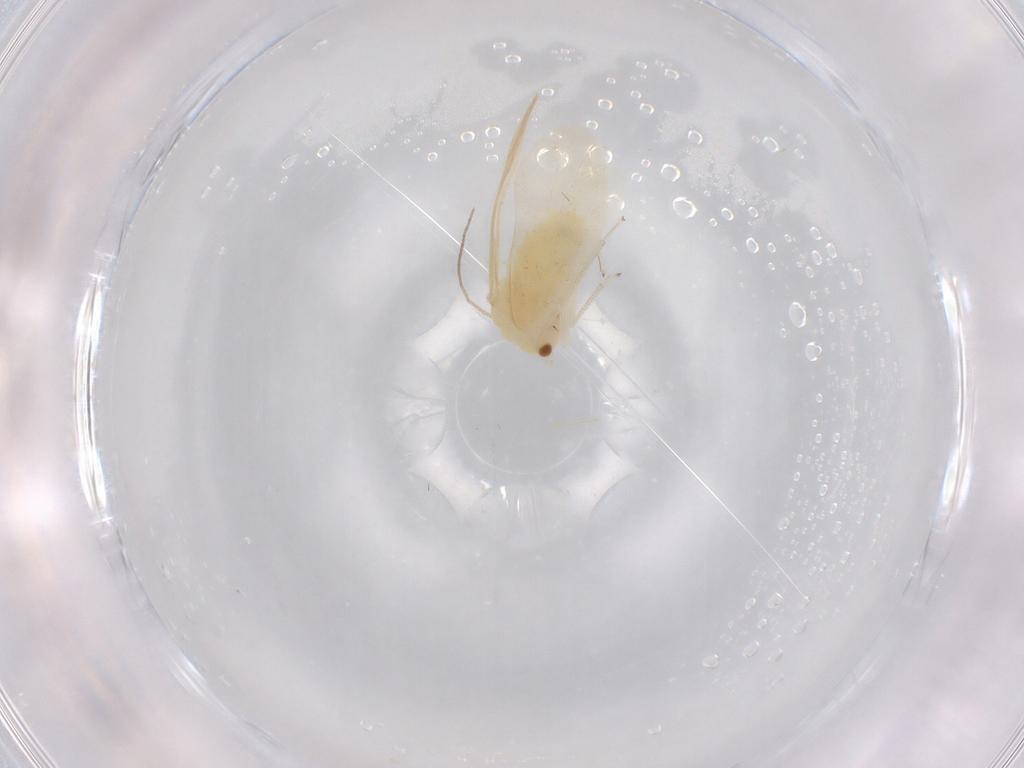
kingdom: Animalia
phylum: Arthropoda
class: Insecta
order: Psocodea
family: Caeciliusidae
